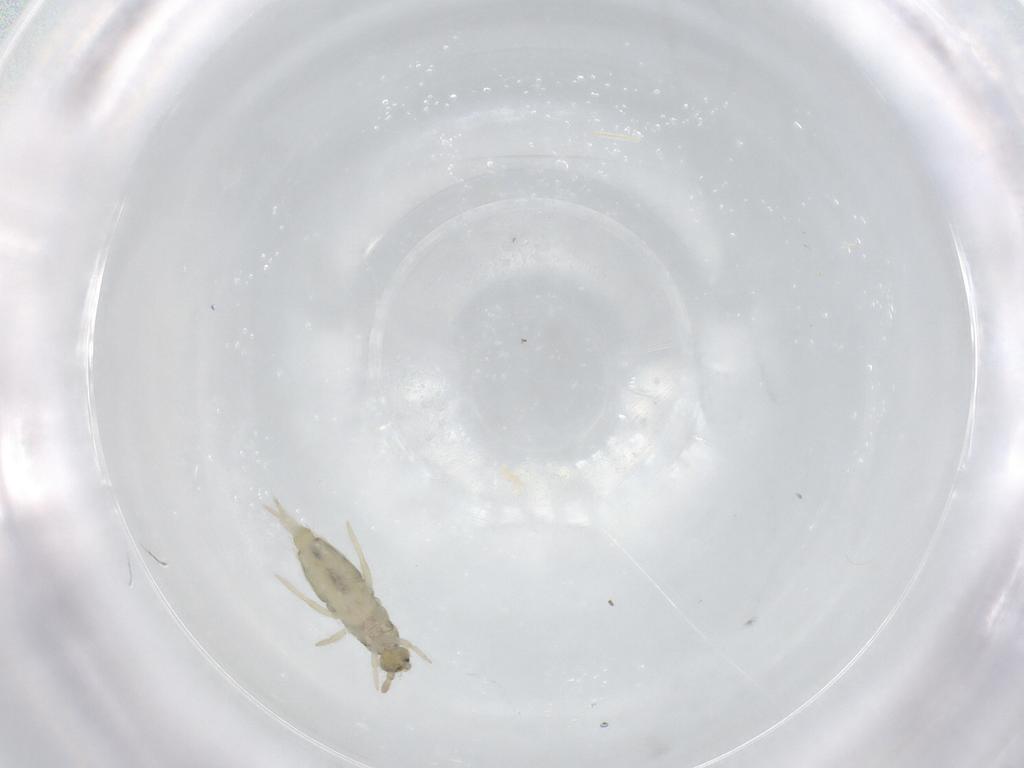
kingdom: Animalia
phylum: Arthropoda
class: Collembola
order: Entomobryomorpha
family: Entomobryidae
